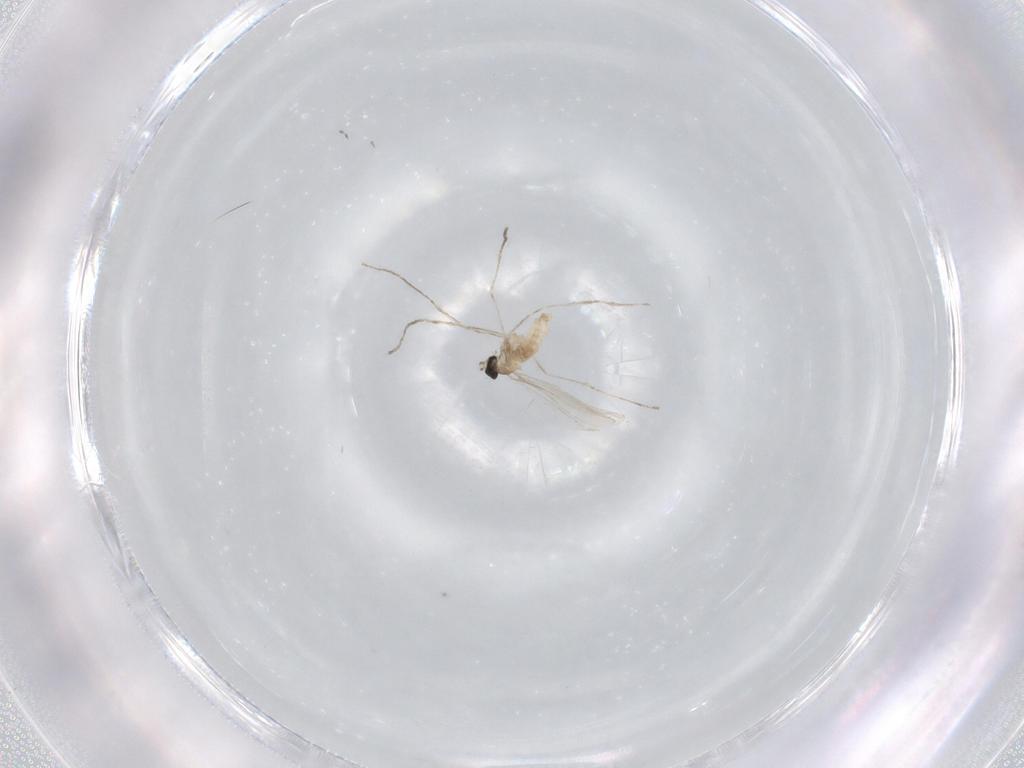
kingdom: Animalia
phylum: Arthropoda
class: Insecta
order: Diptera
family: Cecidomyiidae
